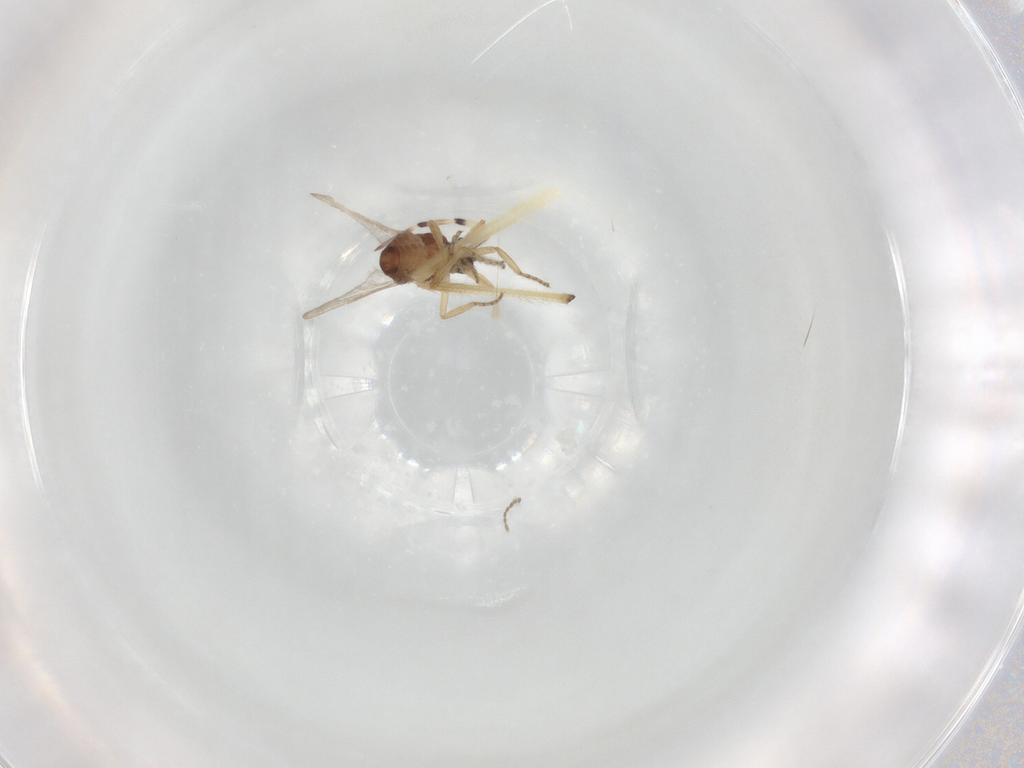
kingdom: Animalia
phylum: Arthropoda
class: Insecta
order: Diptera
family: Ceratopogonidae
